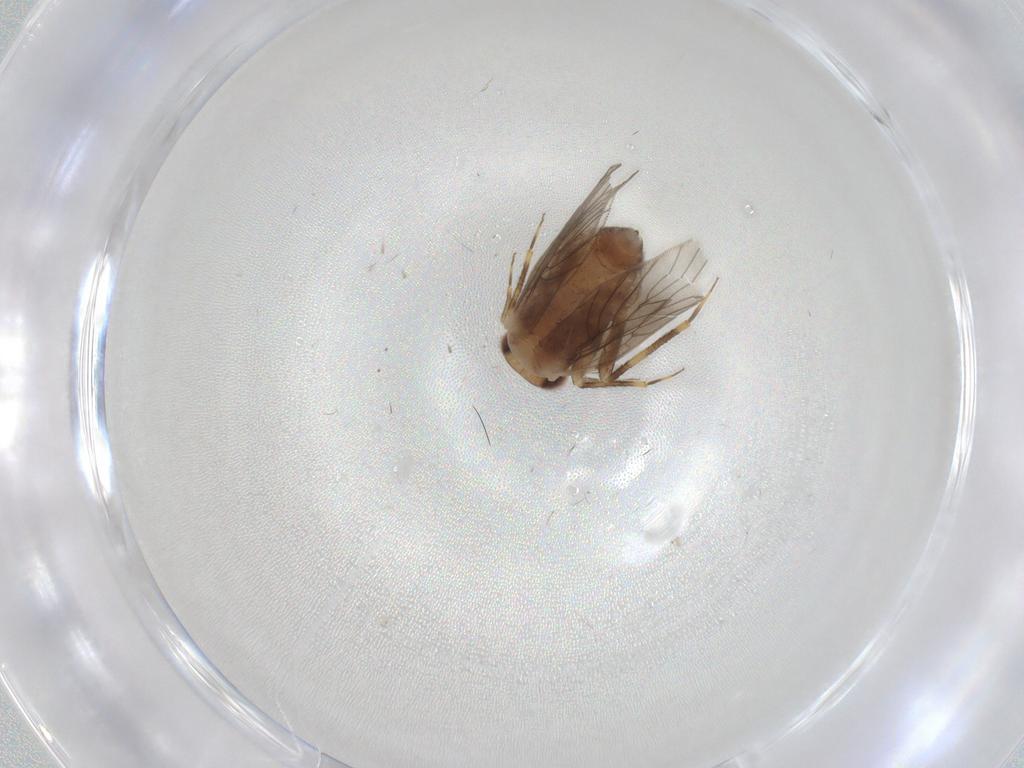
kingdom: Animalia
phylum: Arthropoda
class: Insecta
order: Psocodea
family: Lepidopsocidae
